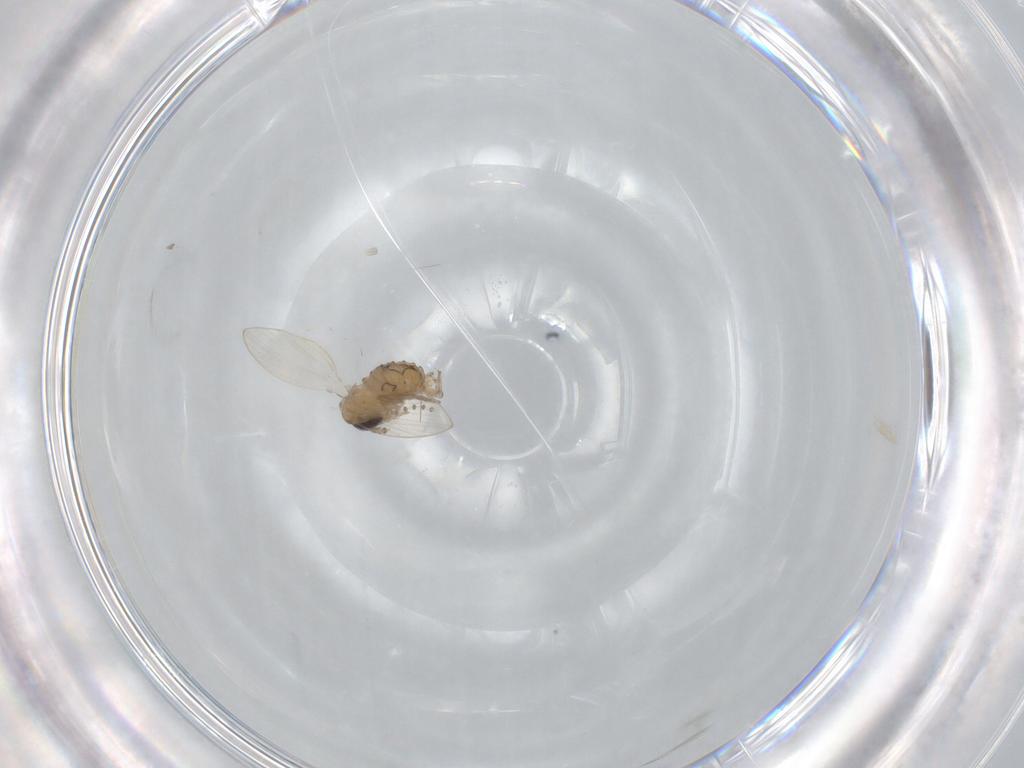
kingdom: Animalia
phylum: Arthropoda
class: Insecta
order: Diptera
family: Psychodidae
